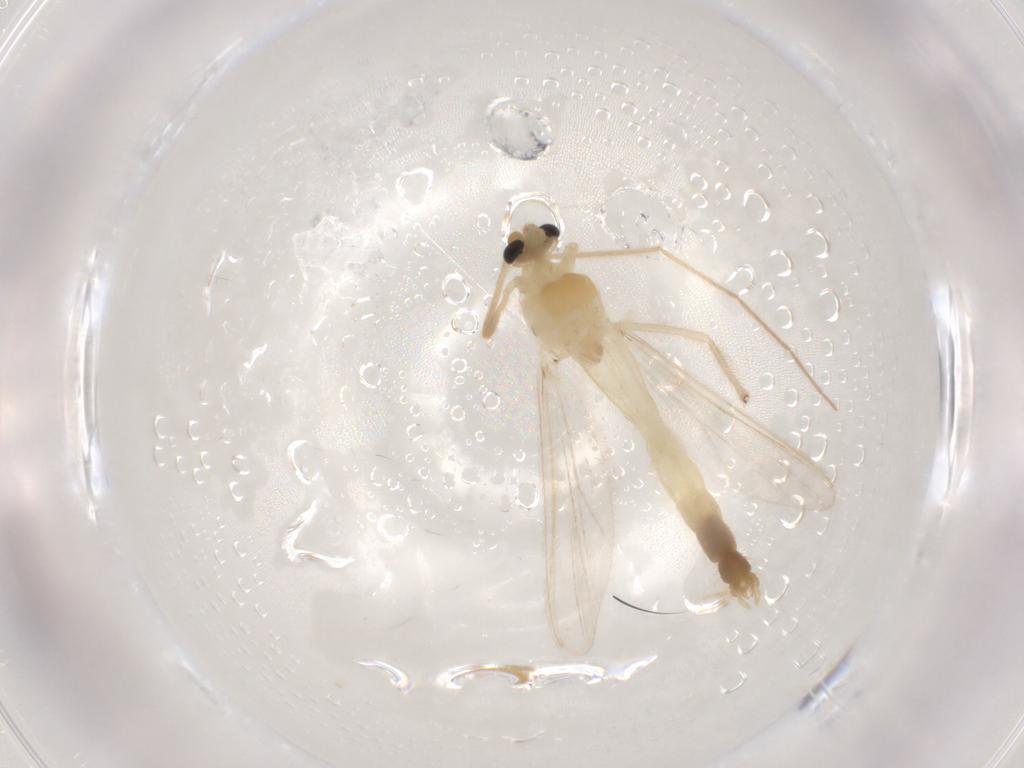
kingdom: Animalia
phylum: Arthropoda
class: Insecta
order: Diptera
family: Chironomidae
